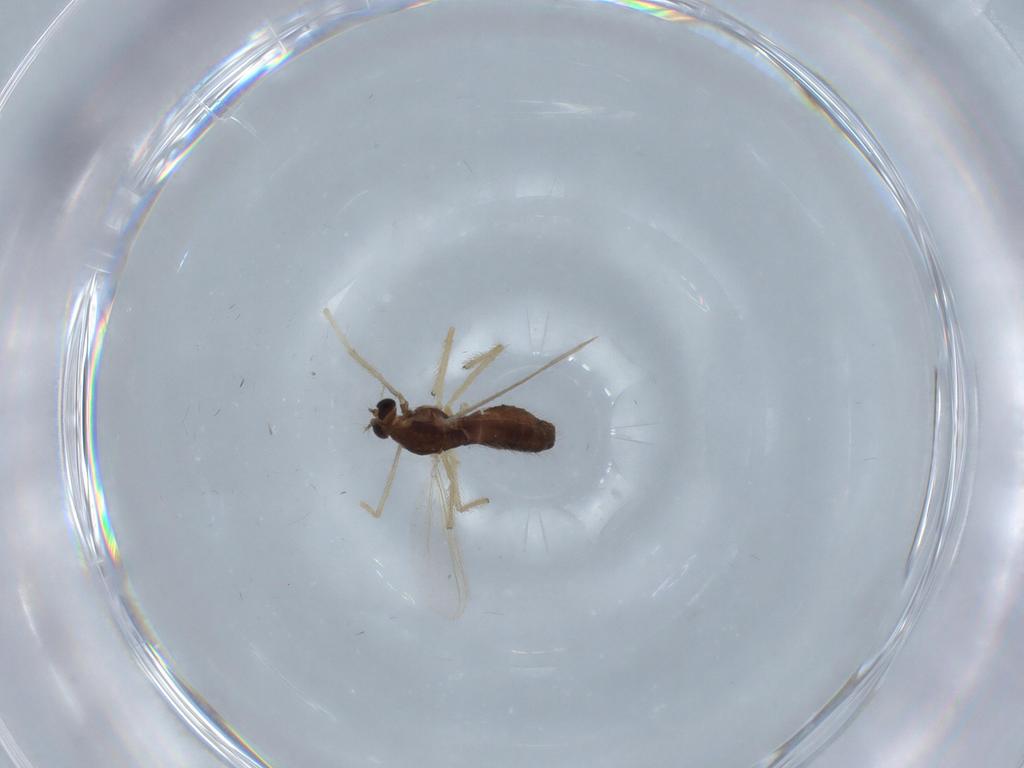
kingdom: Animalia
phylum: Arthropoda
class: Insecta
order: Diptera
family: Chironomidae
